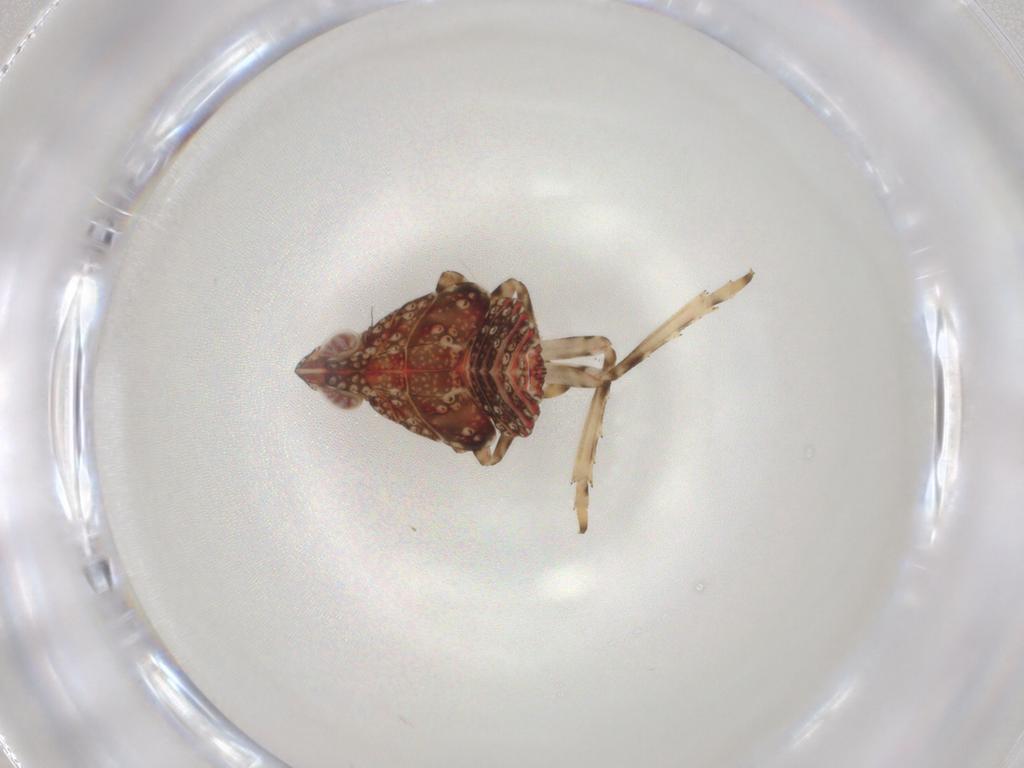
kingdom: Animalia
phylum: Arthropoda
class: Insecta
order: Hemiptera
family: Tropiduchidae
